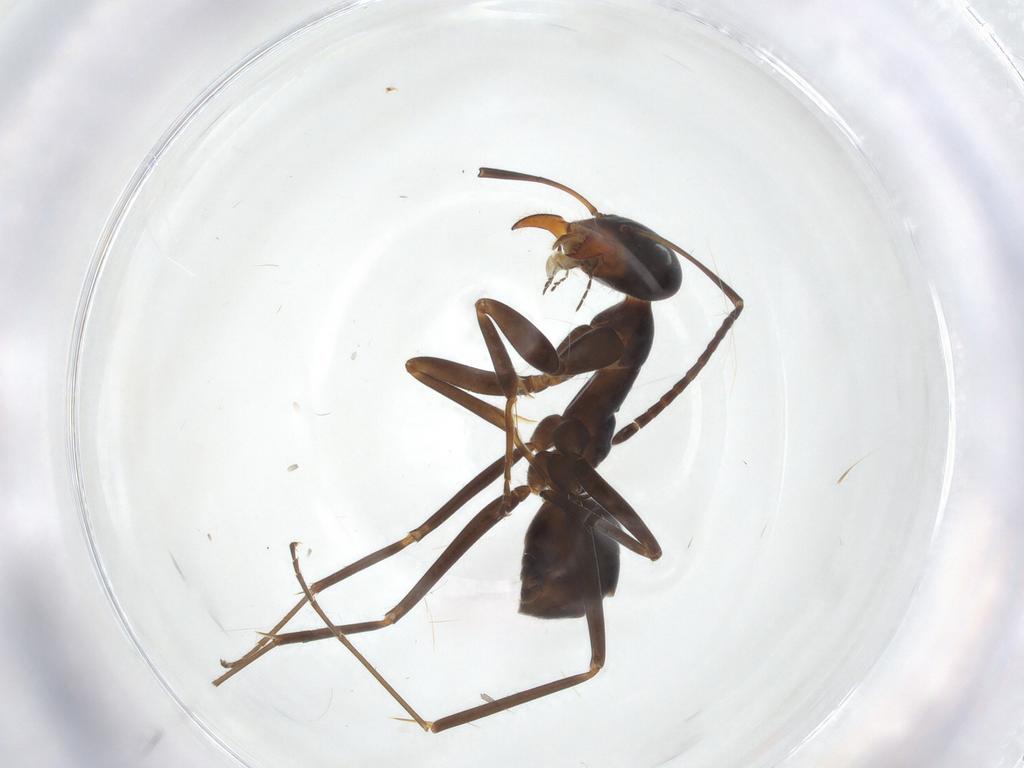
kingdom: Animalia
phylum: Arthropoda
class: Insecta
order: Hymenoptera
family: Formicidae
